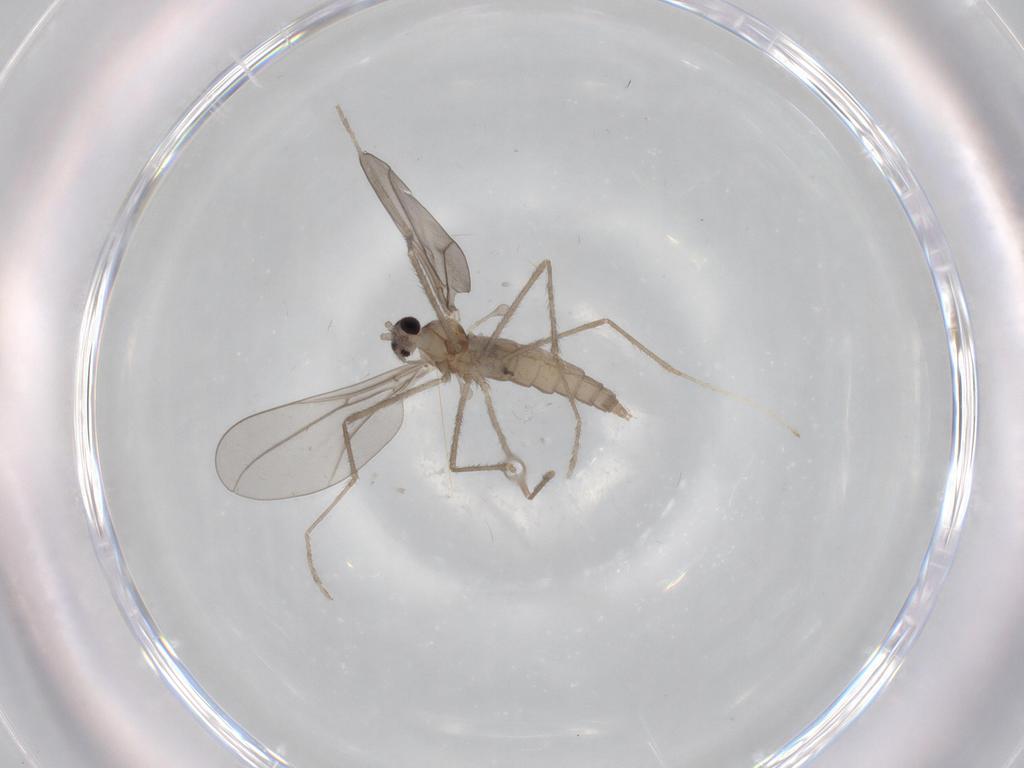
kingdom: Animalia
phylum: Arthropoda
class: Insecta
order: Diptera
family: Cecidomyiidae
